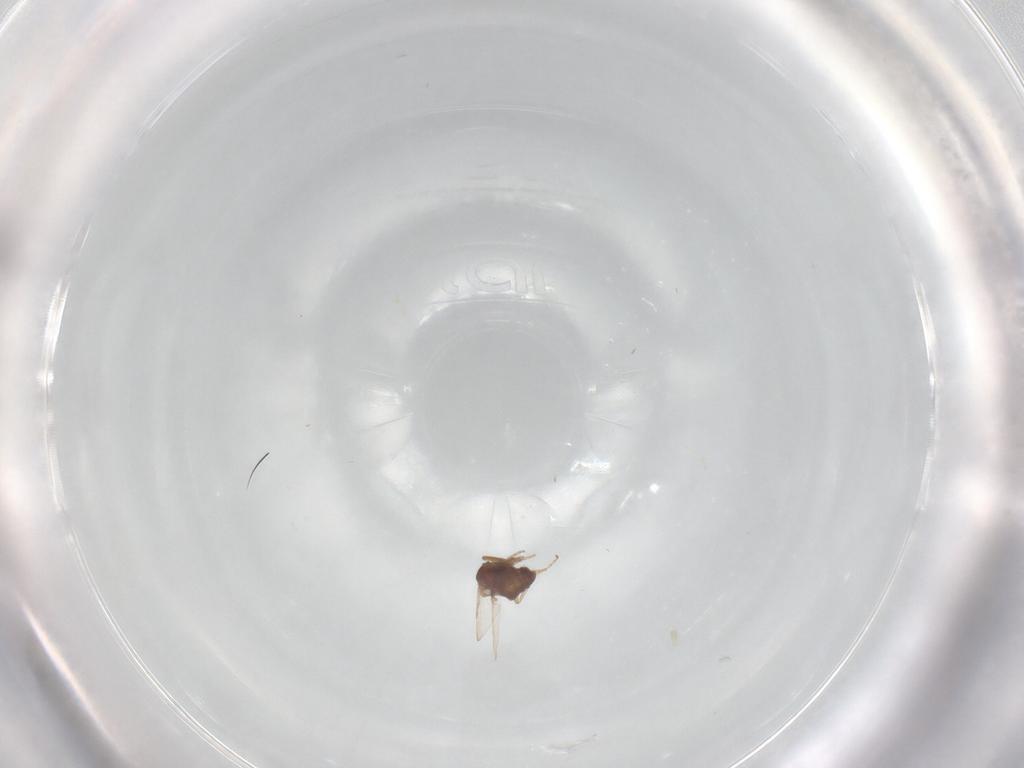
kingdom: Animalia
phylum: Arthropoda
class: Insecta
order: Diptera
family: Ceratopogonidae
